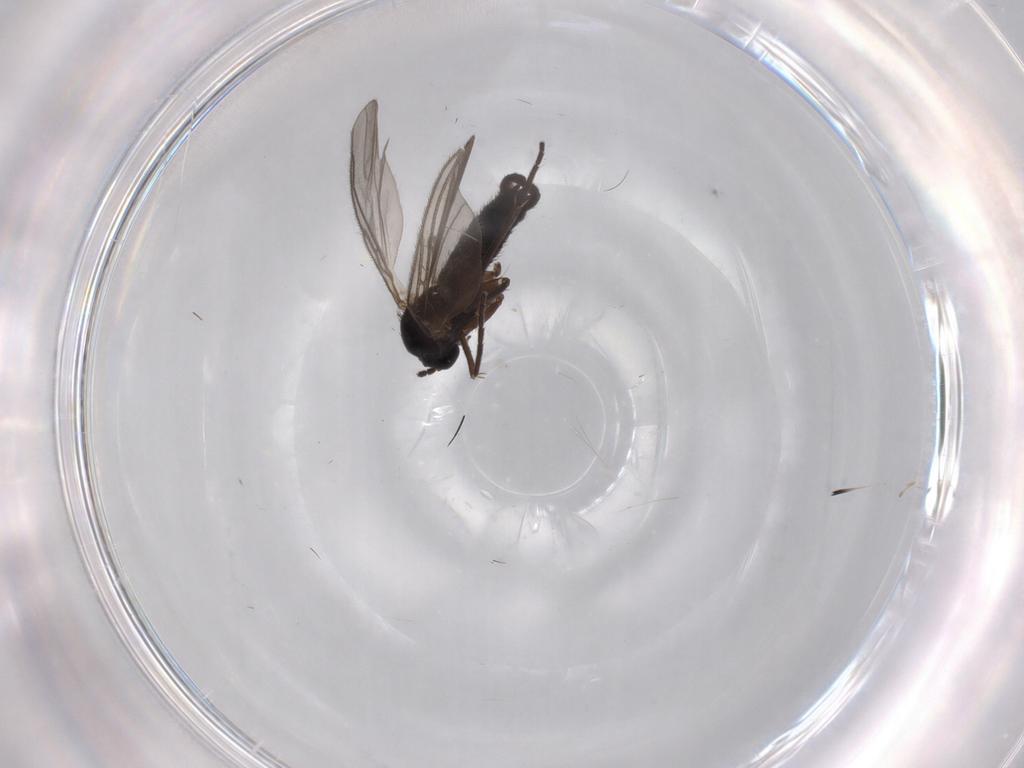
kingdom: Animalia
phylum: Arthropoda
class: Insecta
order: Diptera
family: Sciaridae
